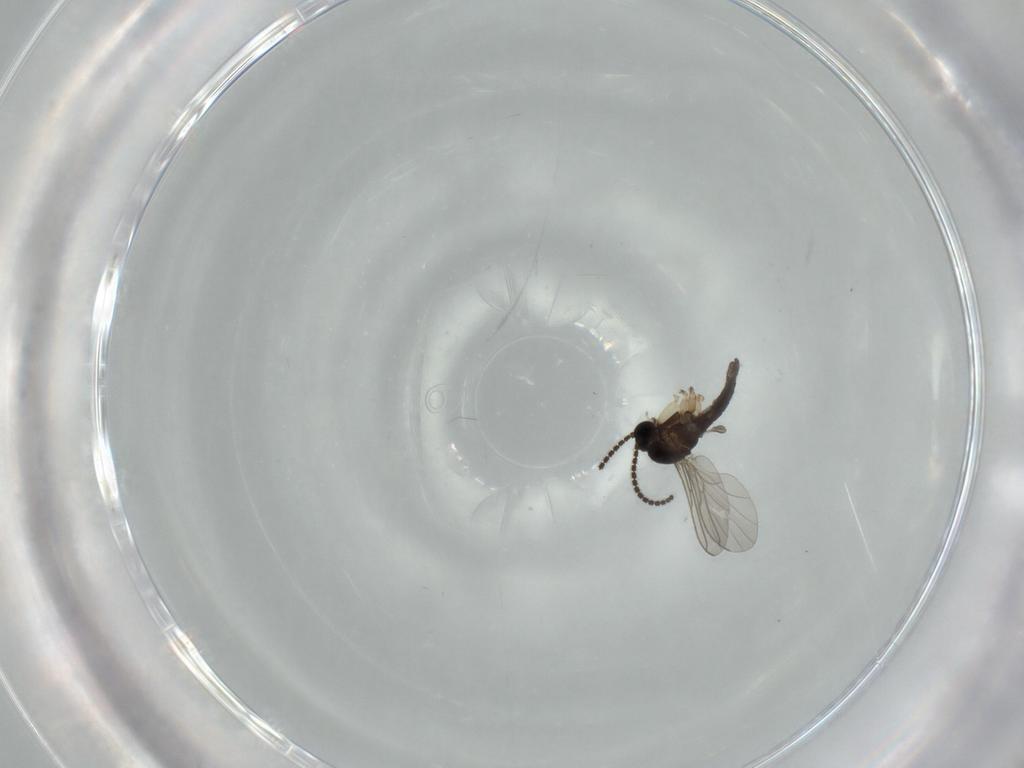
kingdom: Animalia
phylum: Arthropoda
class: Insecta
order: Diptera
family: Sciaridae
